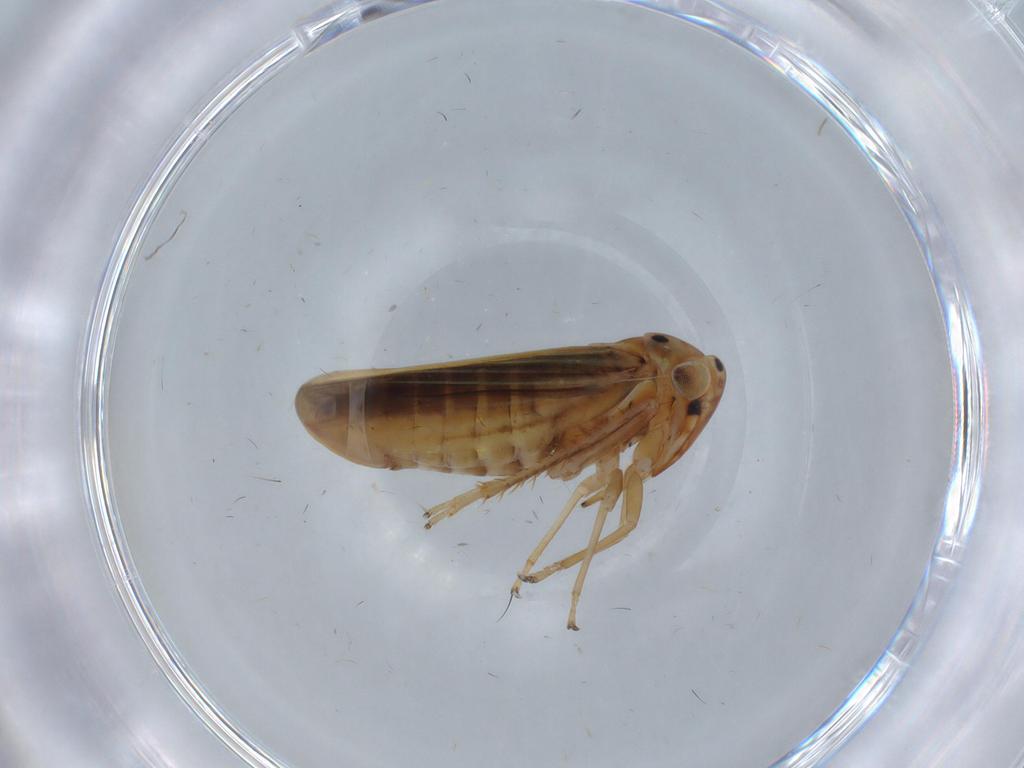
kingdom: Animalia
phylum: Arthropoda
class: Insecta
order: Hemiptera
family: Cicadellidae
